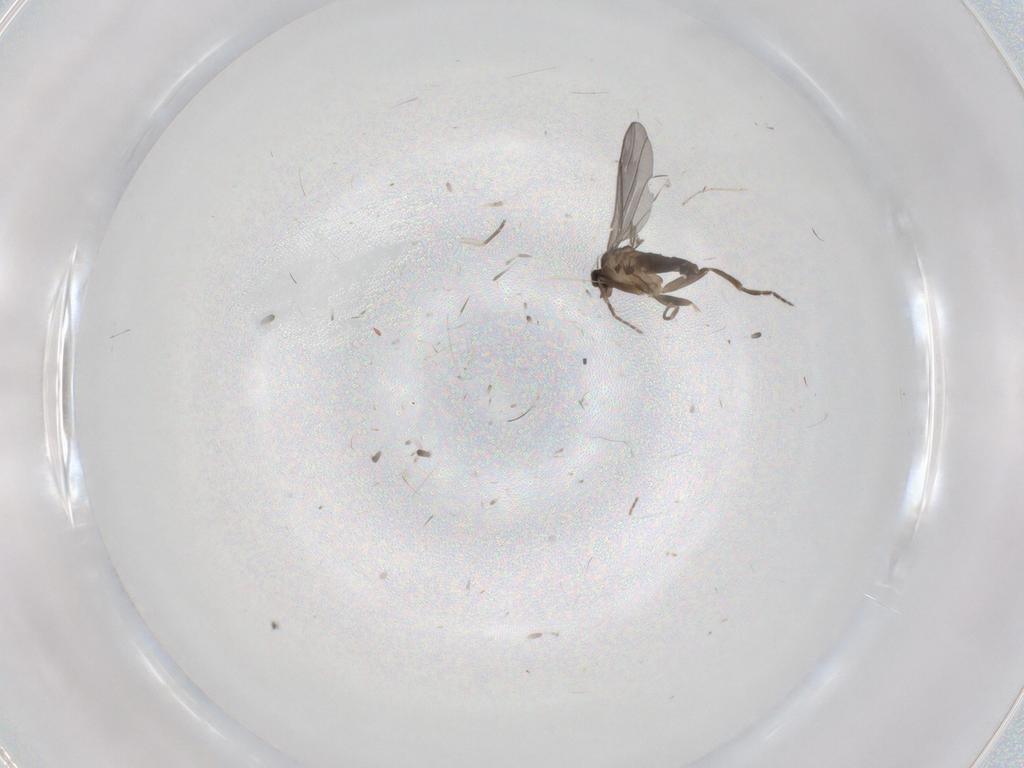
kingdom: Animalia
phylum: Arthropoda
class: Insecta
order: Diptera
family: Phoridae
